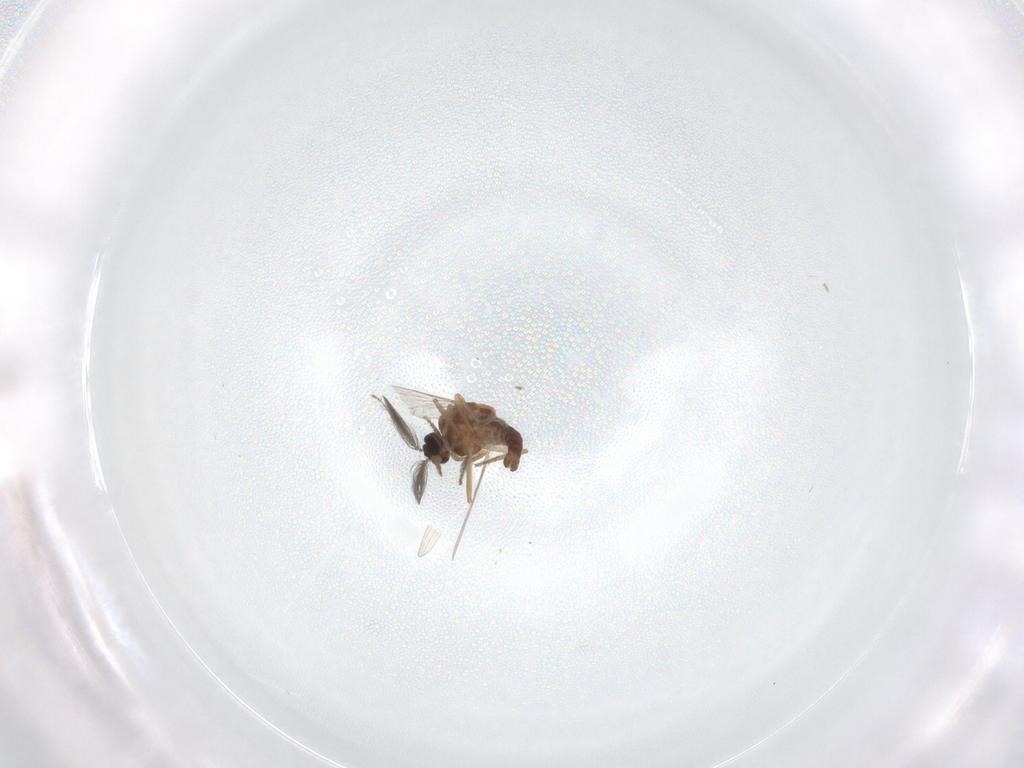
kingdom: Animalia
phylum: Arthropoda
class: Insecta
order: Diptera
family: Ceratopogonidae
